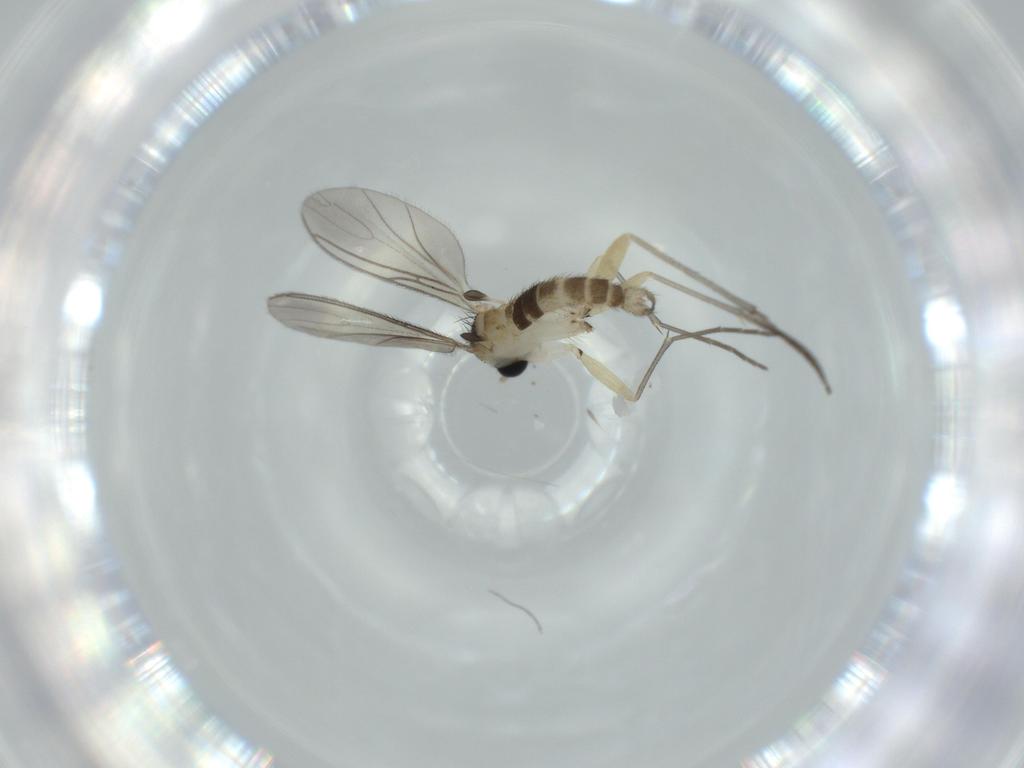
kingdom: Animalia
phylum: Arthropoda
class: Insecta
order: Diptera
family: Sciaridae
